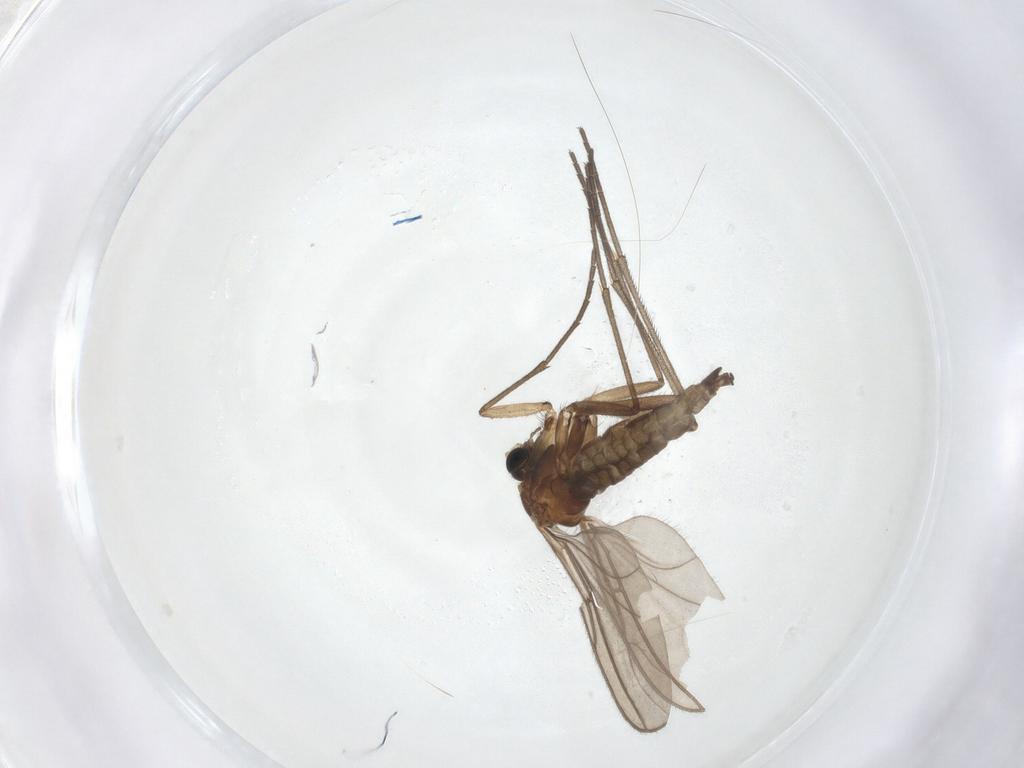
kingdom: Animalia
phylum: Arthropoda
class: Insecta
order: Diptera
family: Sciaridae
